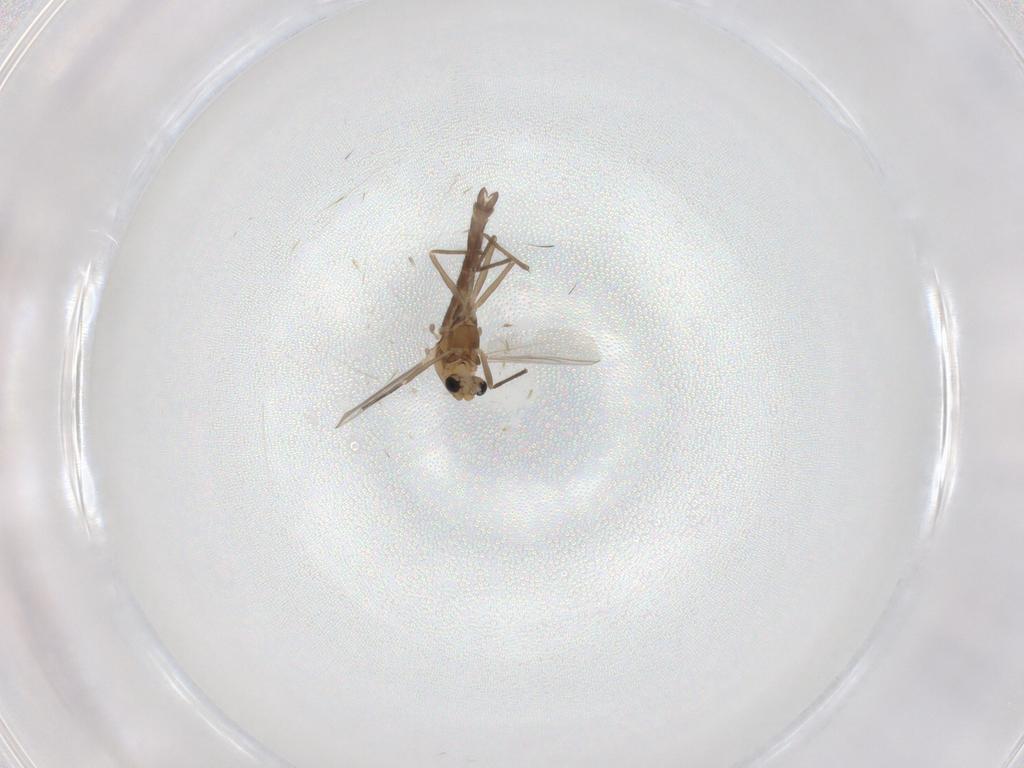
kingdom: Animalia
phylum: Arthropoda
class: Insecta
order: Diptera
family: Chironomidae
